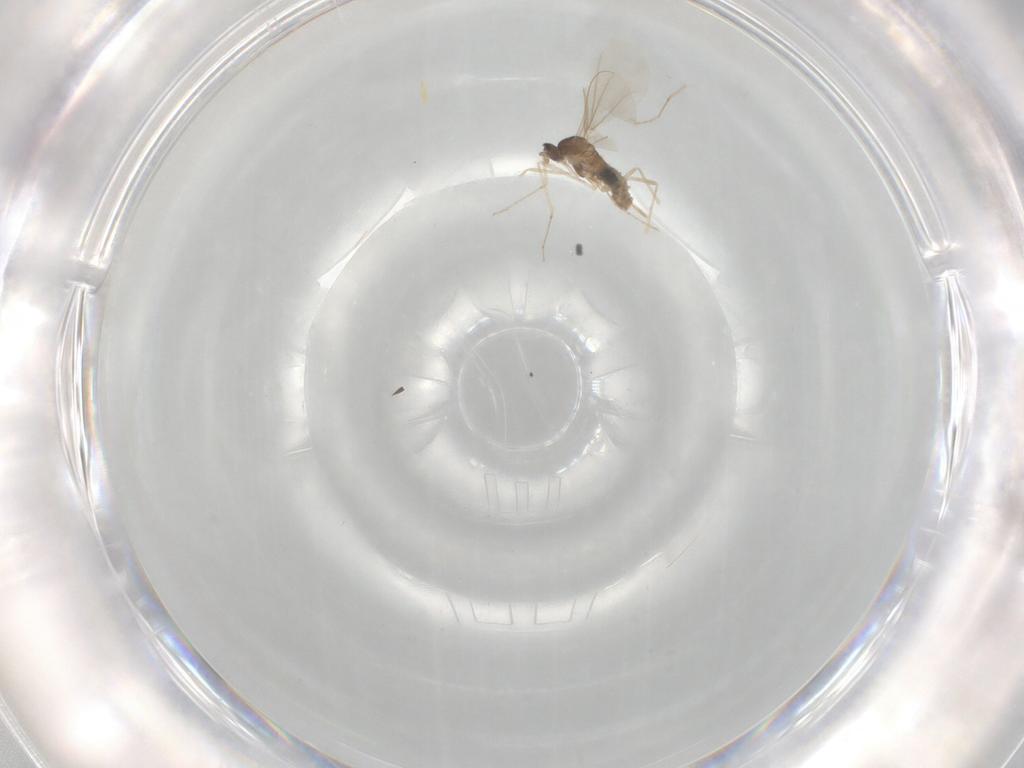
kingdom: Animalia
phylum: Arthropoda
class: Insecta
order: Diptera
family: Cecidomyiidae
